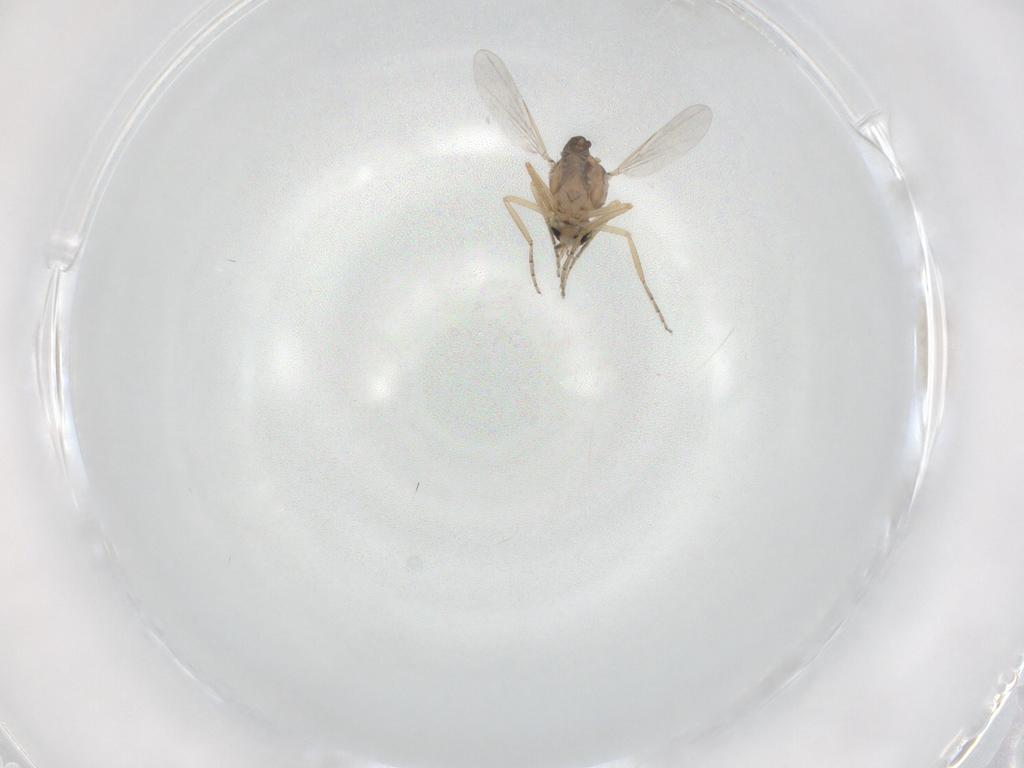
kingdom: Animalia
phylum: Arthropoda
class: Insecta
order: Diptera
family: Ceratopogonidae
